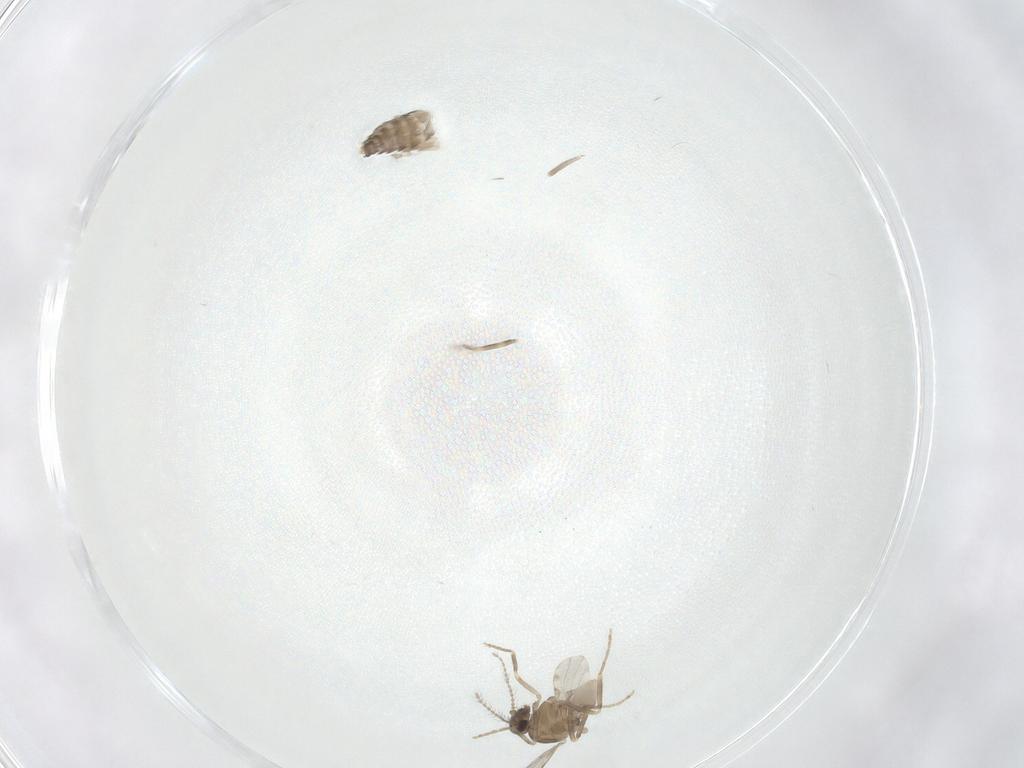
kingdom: Animalia
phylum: Arthropoda
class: Insecta
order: Diptera
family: Ceratopogonidae
